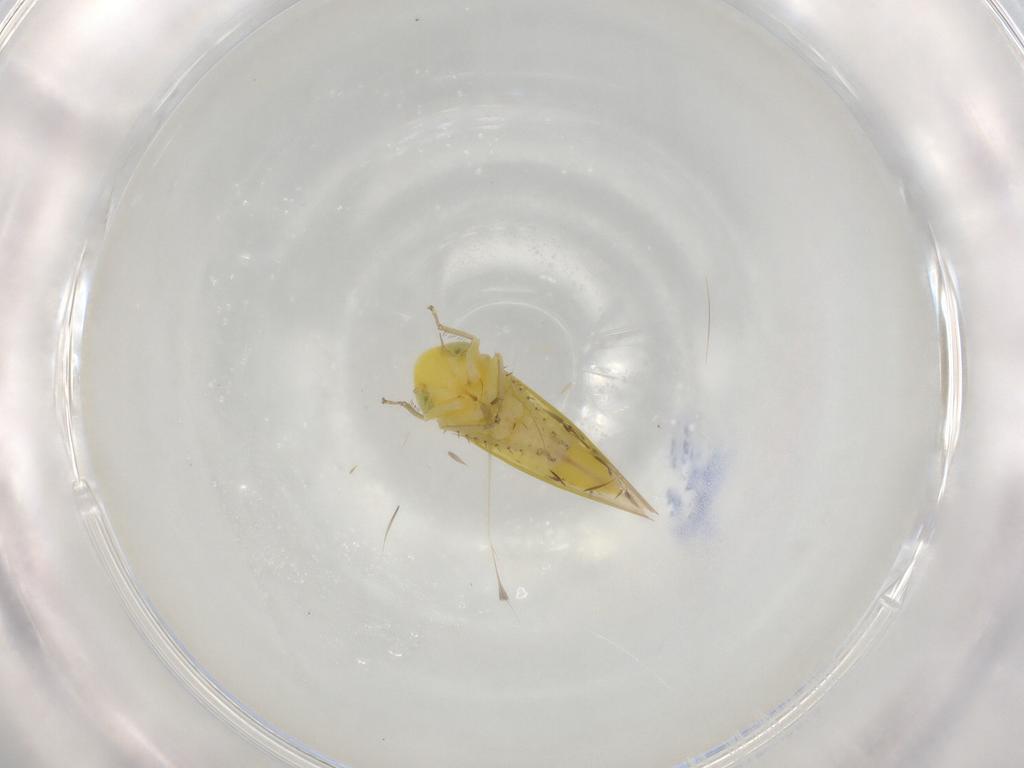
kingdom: Animalia
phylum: Arthropoda
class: Insecta
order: Hemiptera
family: Cicadellidae
